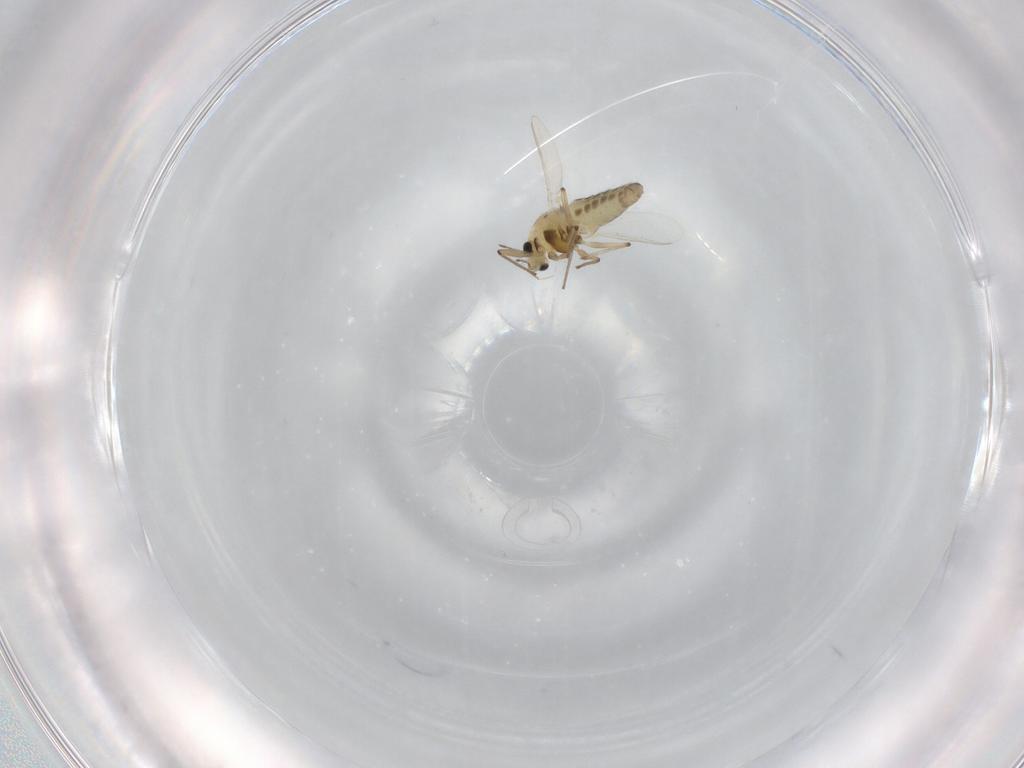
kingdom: Animalia
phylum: Arthropoda
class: Insecta
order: Diptera
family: Chironomidae
